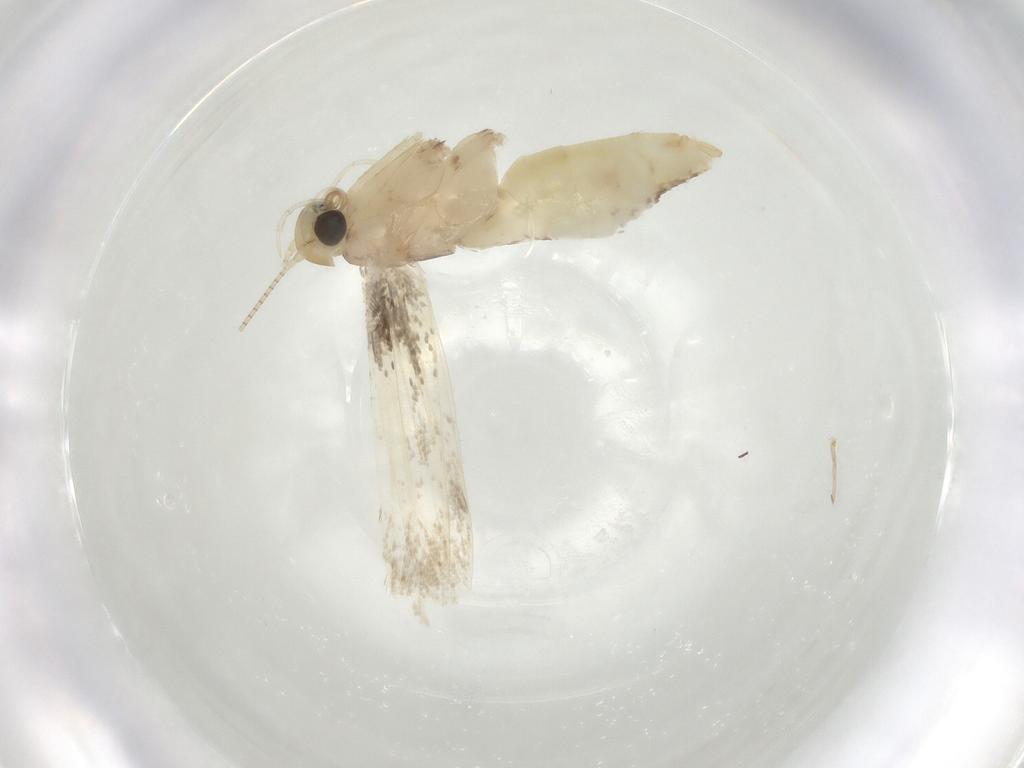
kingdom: Animalia
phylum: Arthropoda
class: Insecta
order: Lepidoptera
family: Gracillariidae
